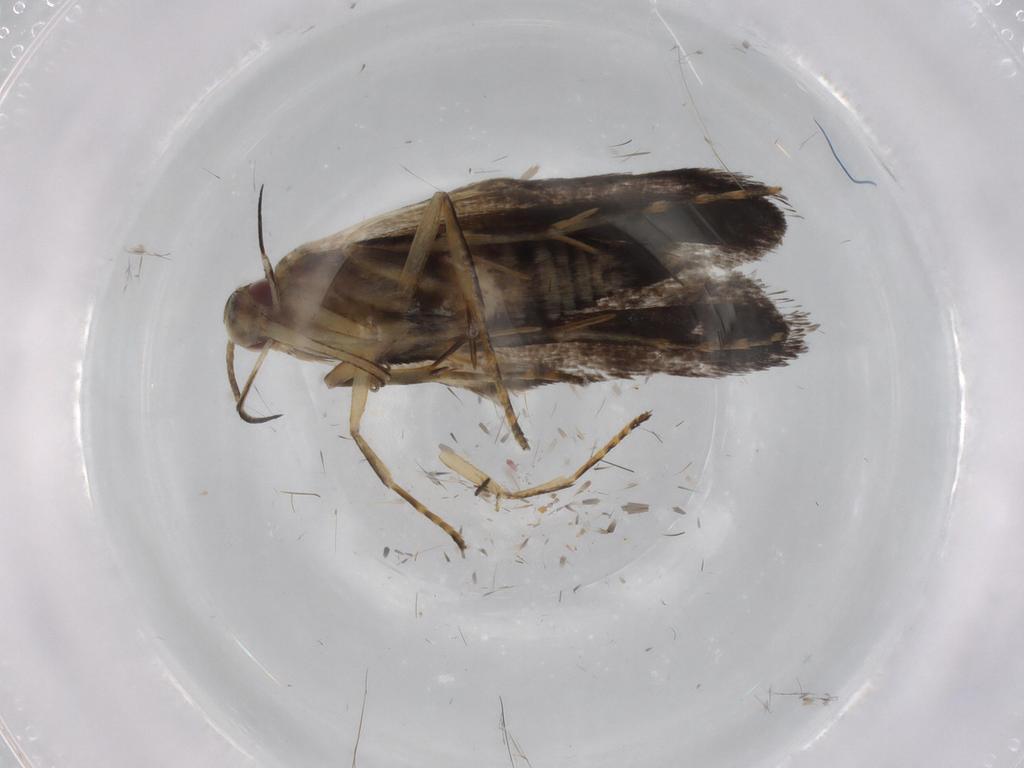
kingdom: Animalia
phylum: Arthropoda
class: Insecta
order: Lepidoptera
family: Gelechiidae
